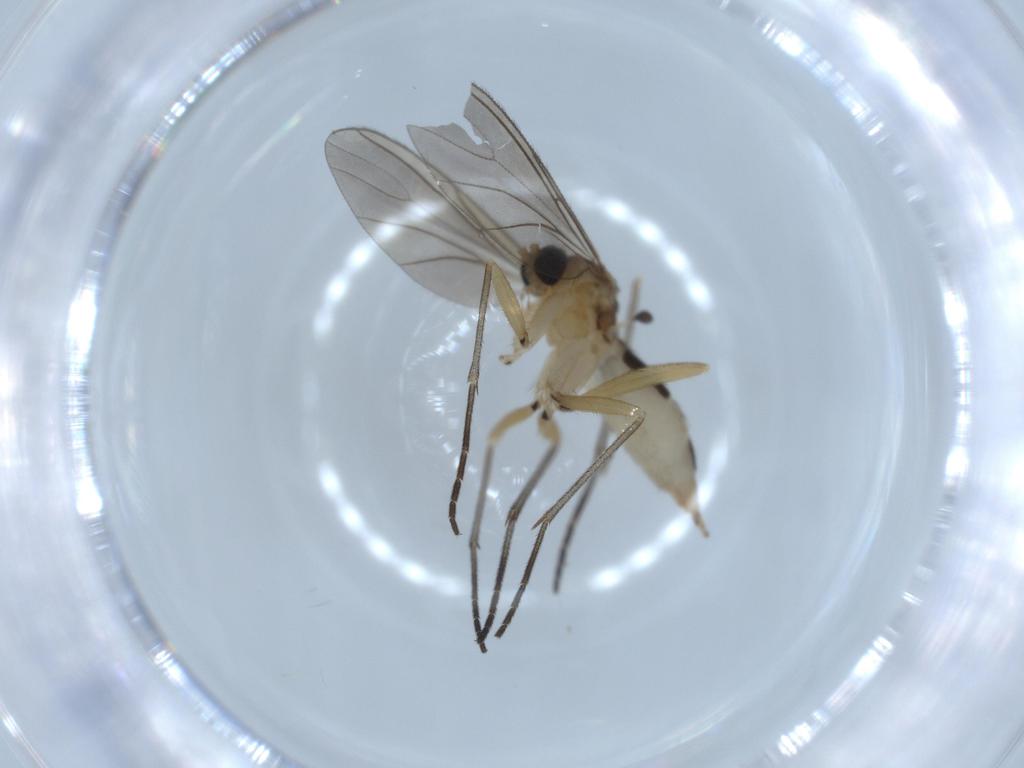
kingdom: Animalia
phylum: Arthropoda
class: Insecta
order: Diptera
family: Sciaridae
